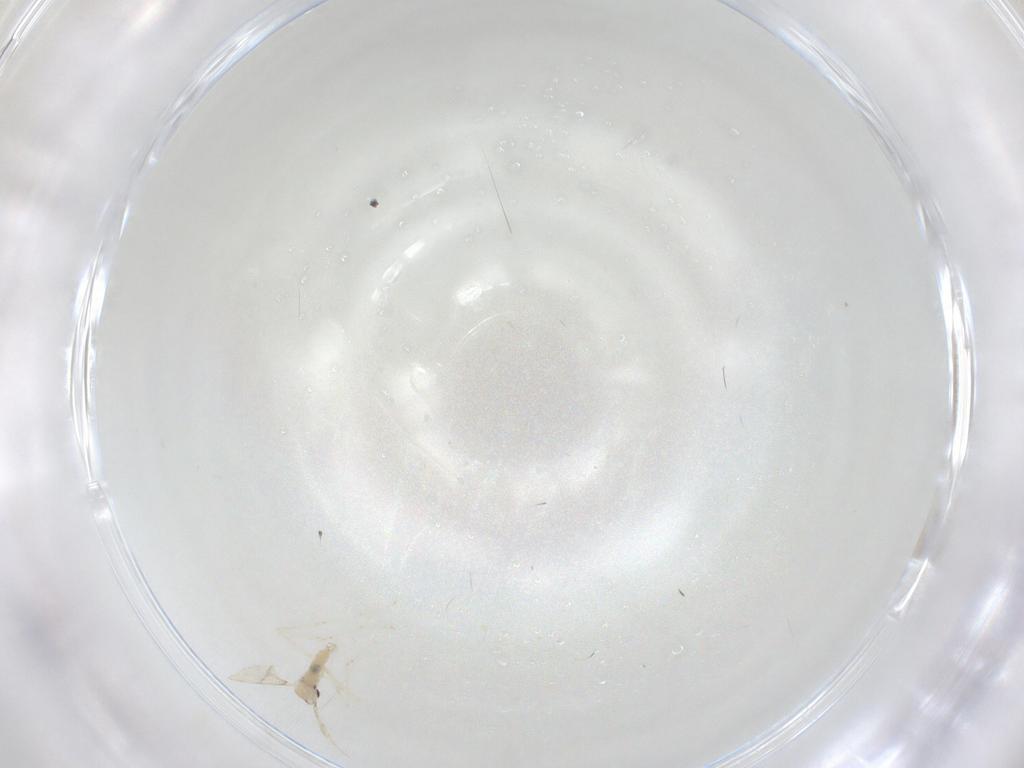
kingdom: Animalia
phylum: Arthropoda
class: Insecta
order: Diptera
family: Cecidomyiidae
